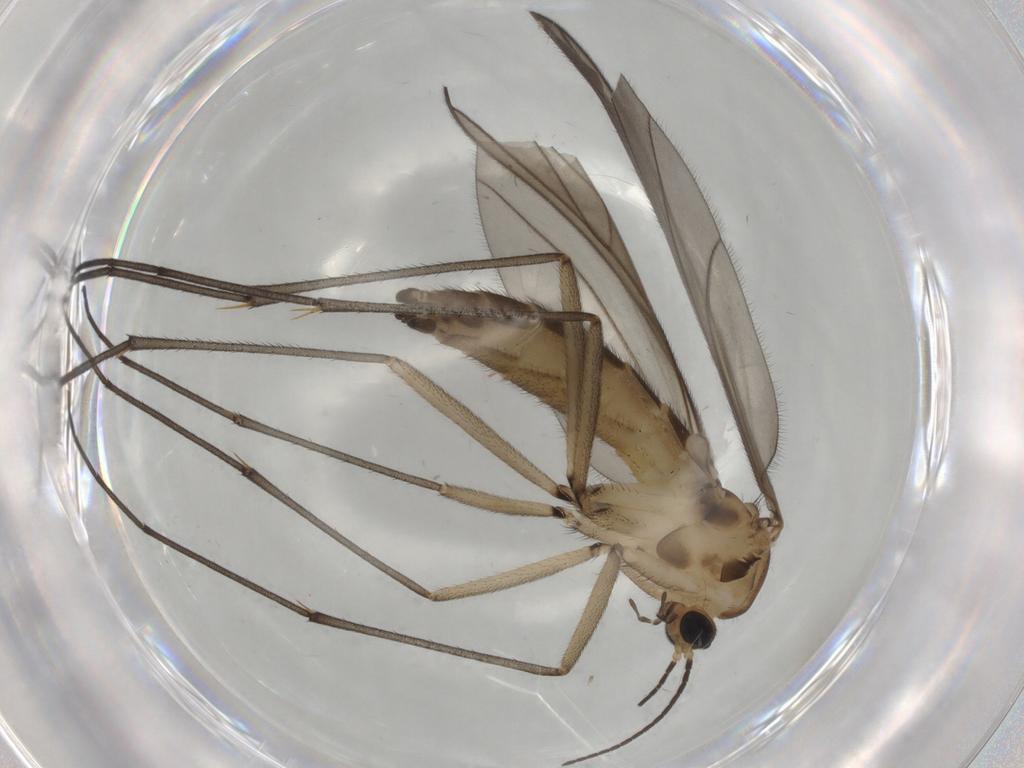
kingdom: Animalia
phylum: Arthropoda
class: Insecta
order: Diptera
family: Sciaridae
